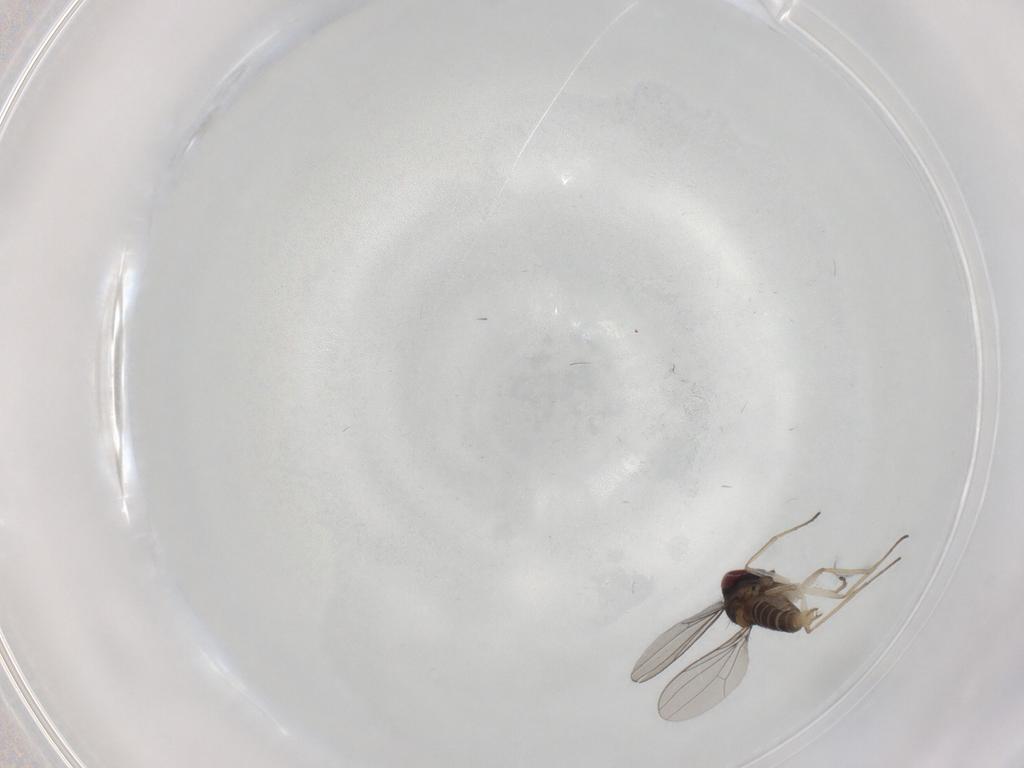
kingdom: Animalia
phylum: Arthropoda
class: Insecta
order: Diptera
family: Dolichopodidae
